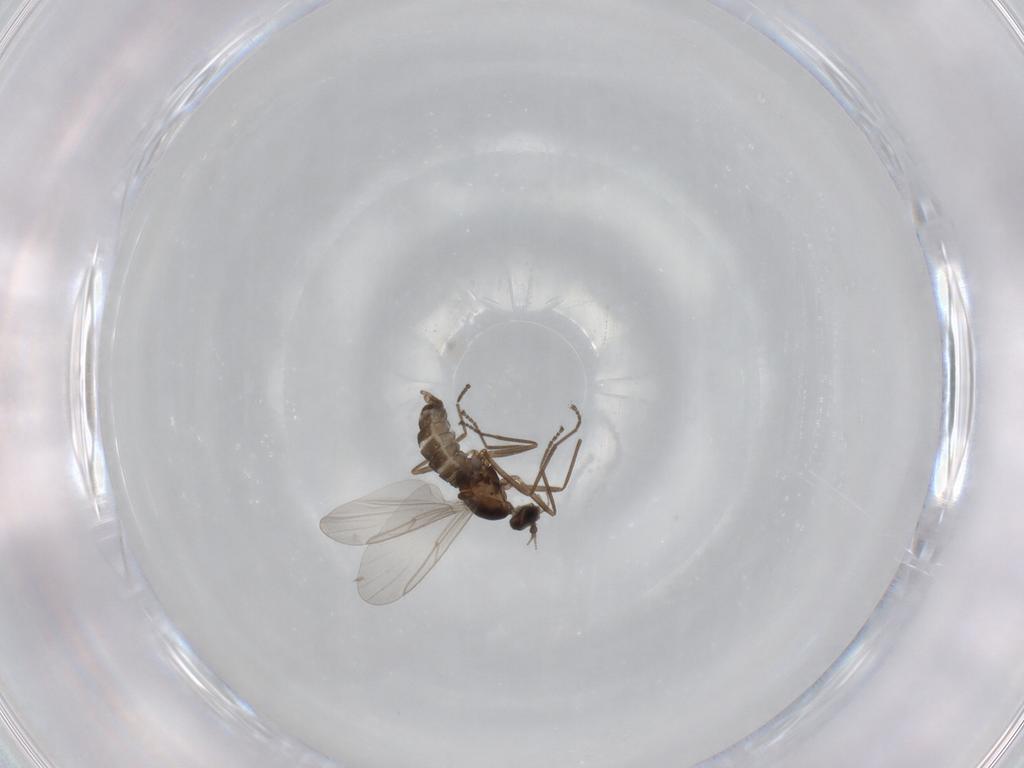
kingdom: Animalia
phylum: Arthropoda
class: Insecta
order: Diptera
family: Cecidomyiidae
